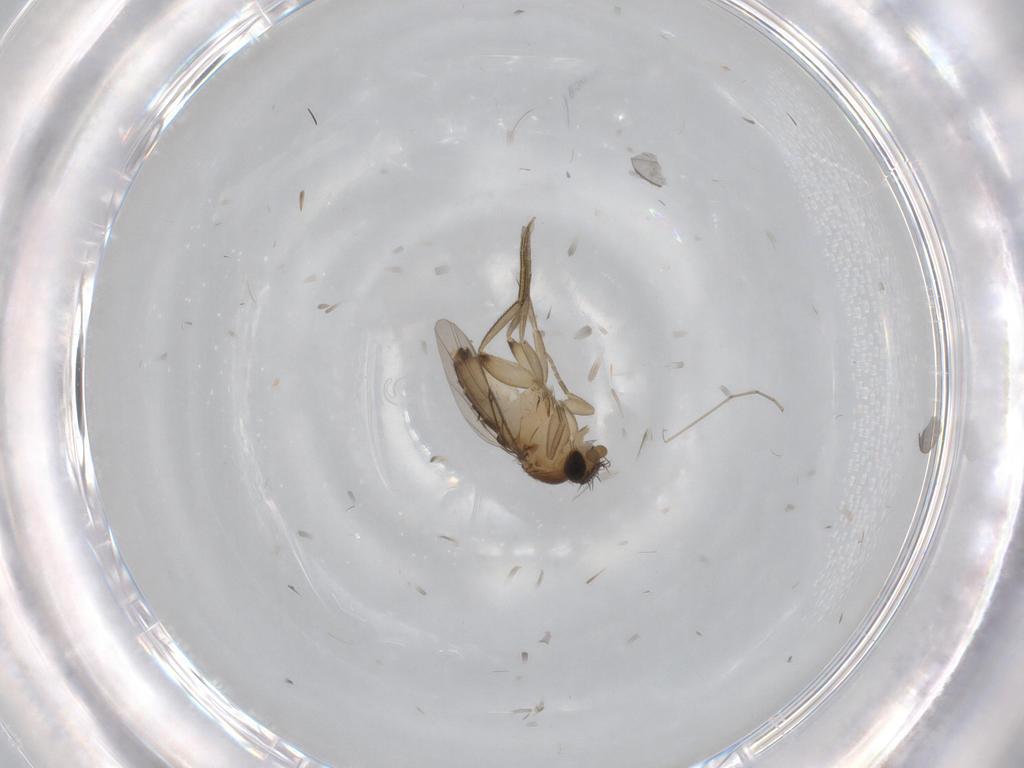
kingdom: Animalia
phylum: Arthropoda
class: Insecta
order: Diptera
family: Phoridae
